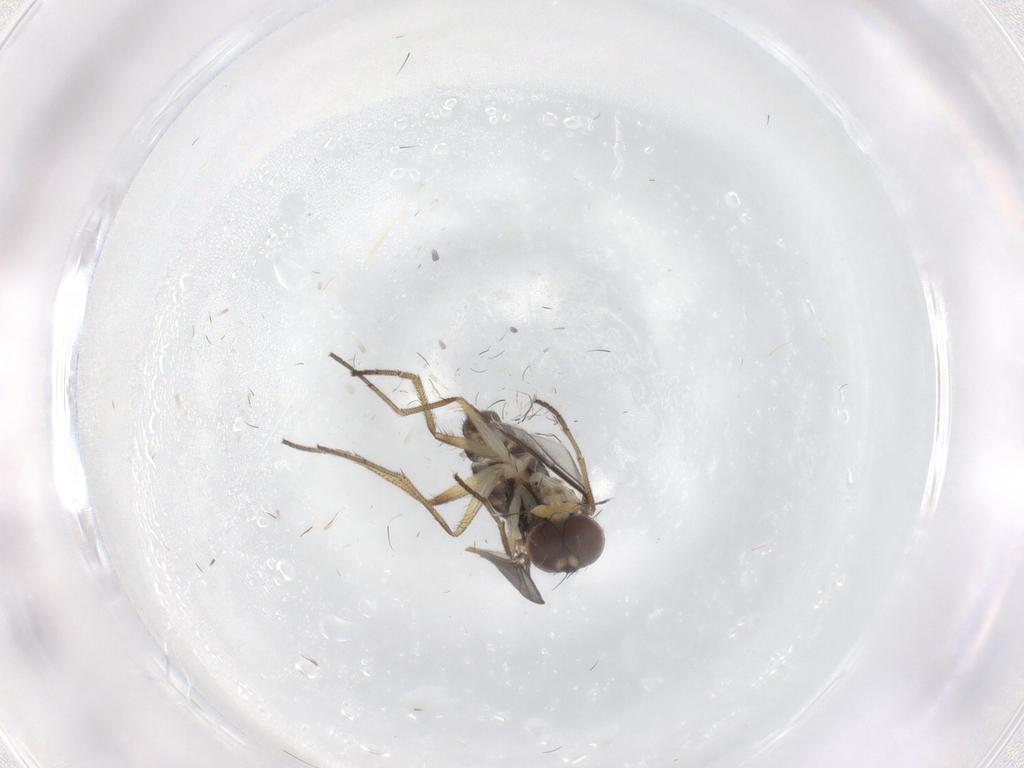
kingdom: Animalia
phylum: Arthropoda
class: Insecta
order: Diptera
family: Dolichopodidae
